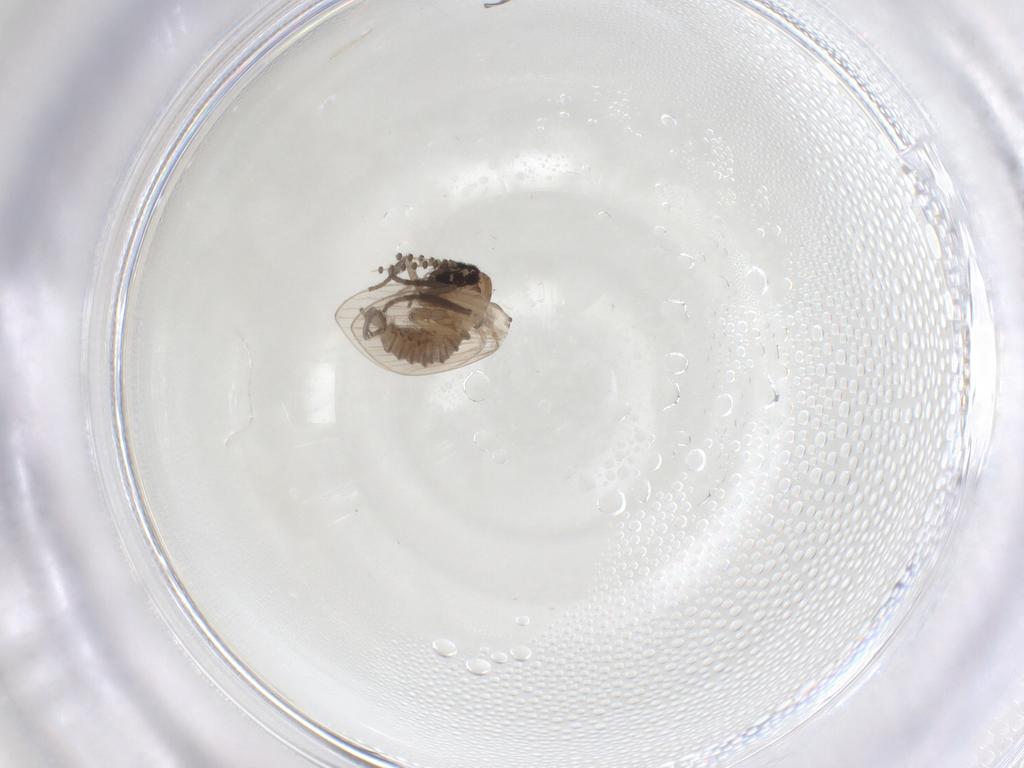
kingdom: Animalia
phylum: Arthropoda
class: Insecta
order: Diptera
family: Psychodidae
